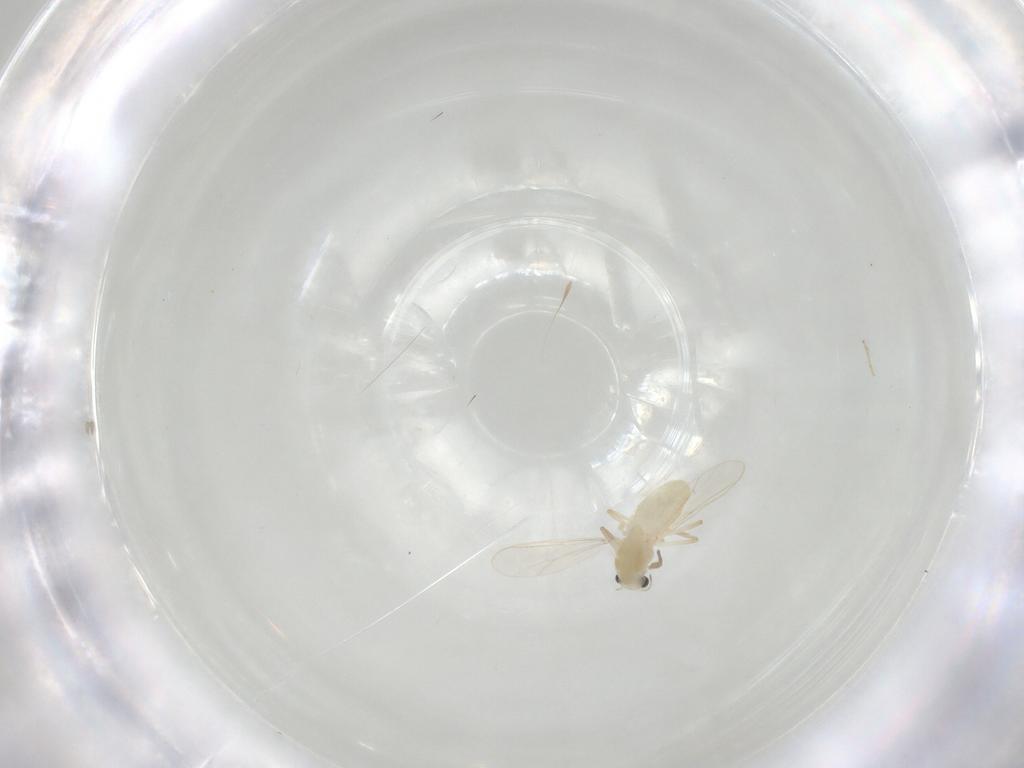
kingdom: Animalia
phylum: Arthropoda
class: Insecta
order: Diptera
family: Chironomidae
